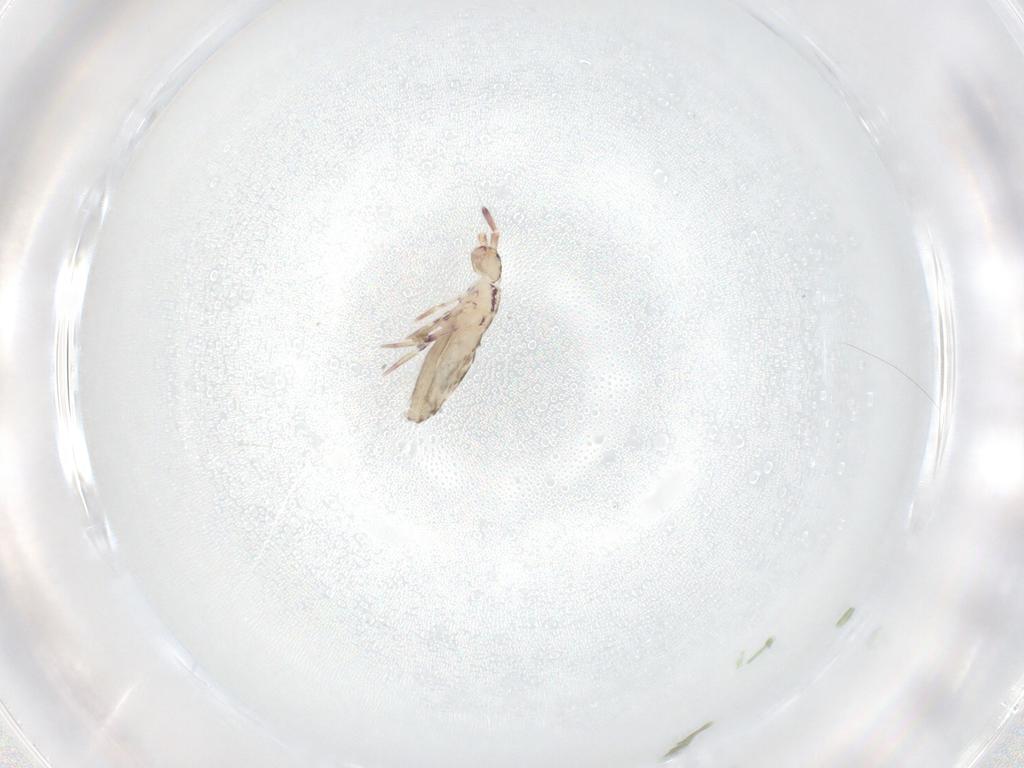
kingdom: Animalia
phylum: Arthropoda
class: Collembola
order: Entomobryomorpha
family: Entomobryidae
